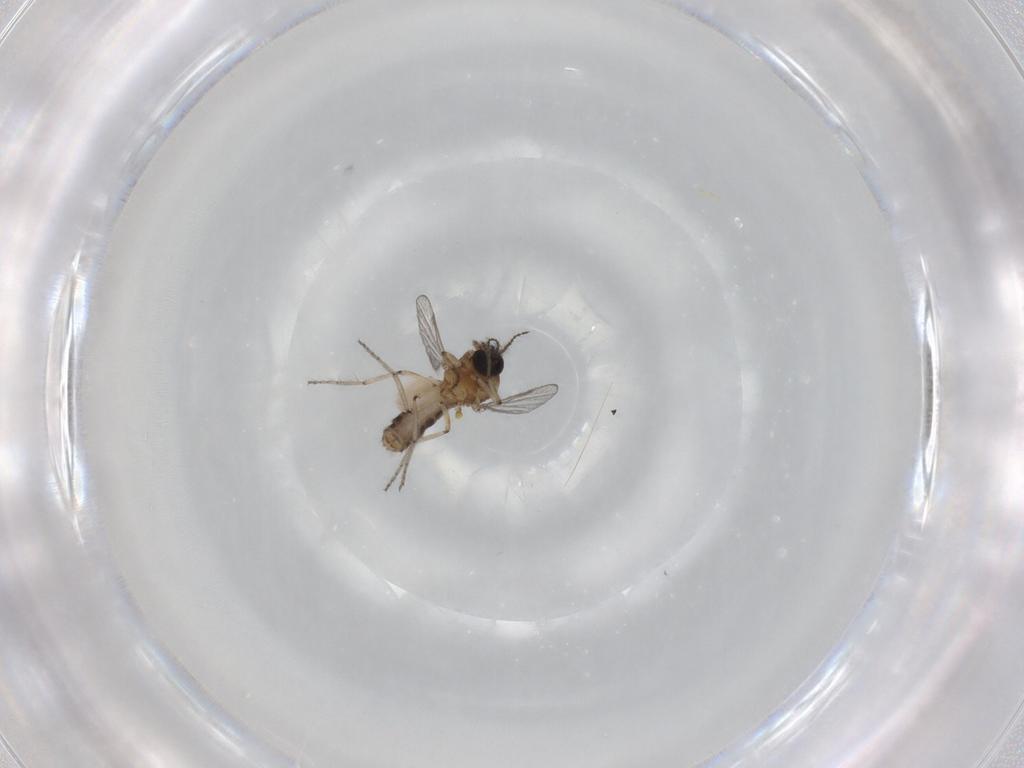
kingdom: Animalia
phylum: Arthropoda
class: Insecta
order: Diptera
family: Ceratopogonidae
